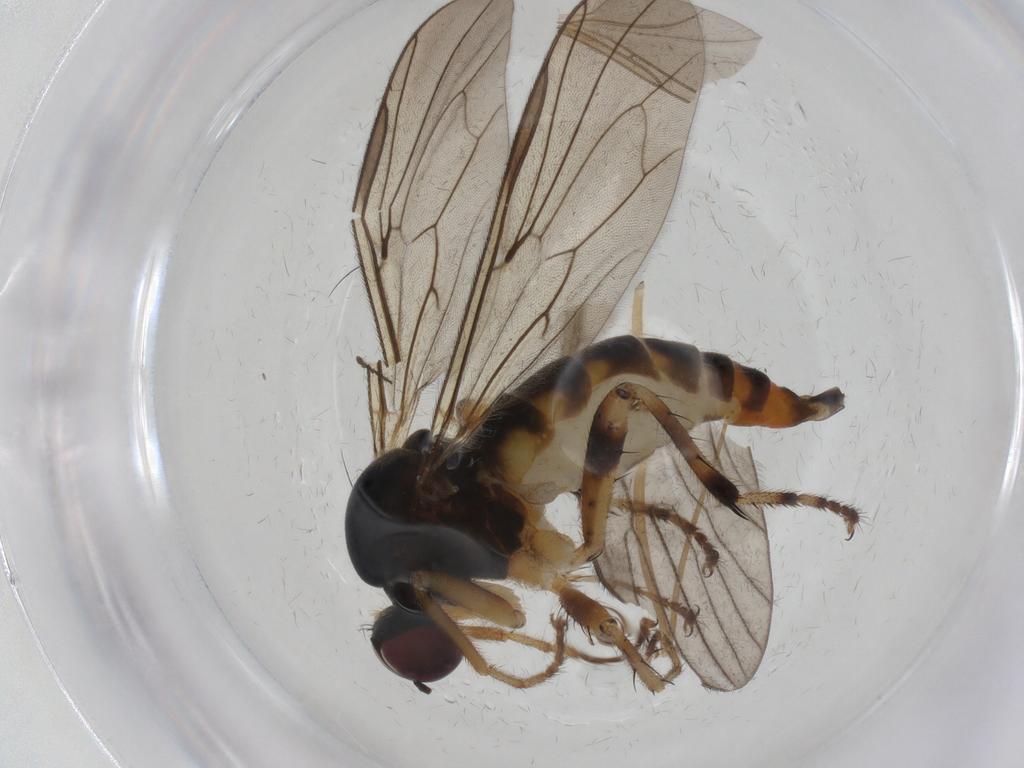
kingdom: Animalia
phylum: Arthropoda
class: Insecta
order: Diptera
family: Hybotidae
